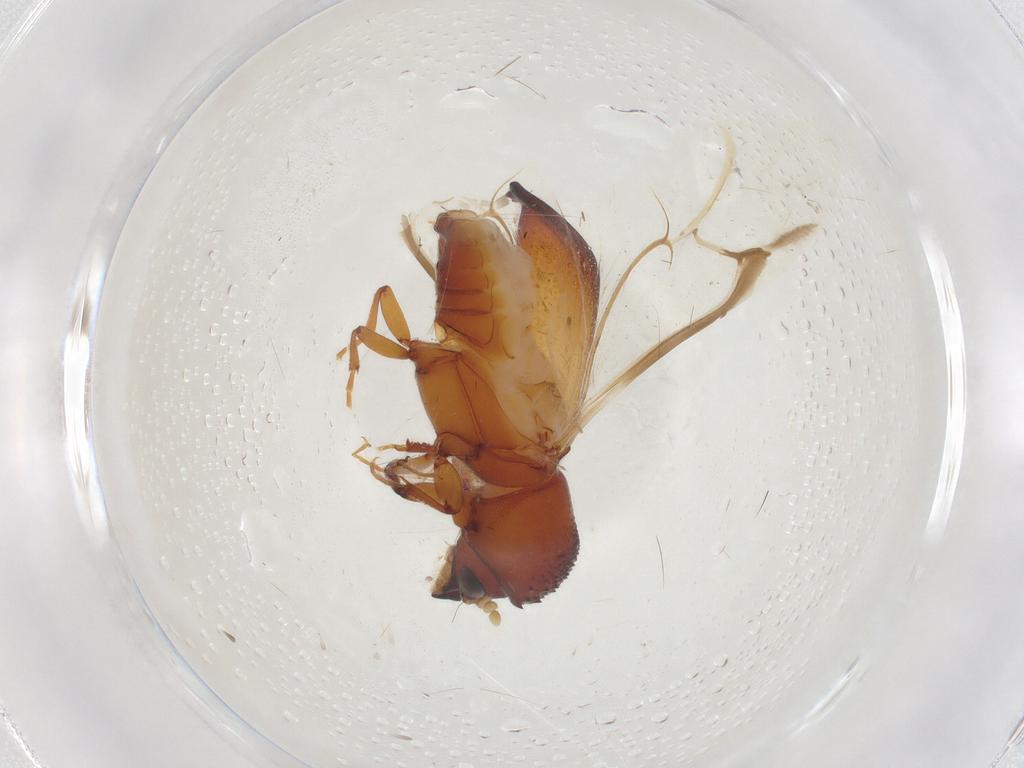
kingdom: Animalia
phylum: Arthropoda
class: Insecta
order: Coleoptera
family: Bostrichidae
